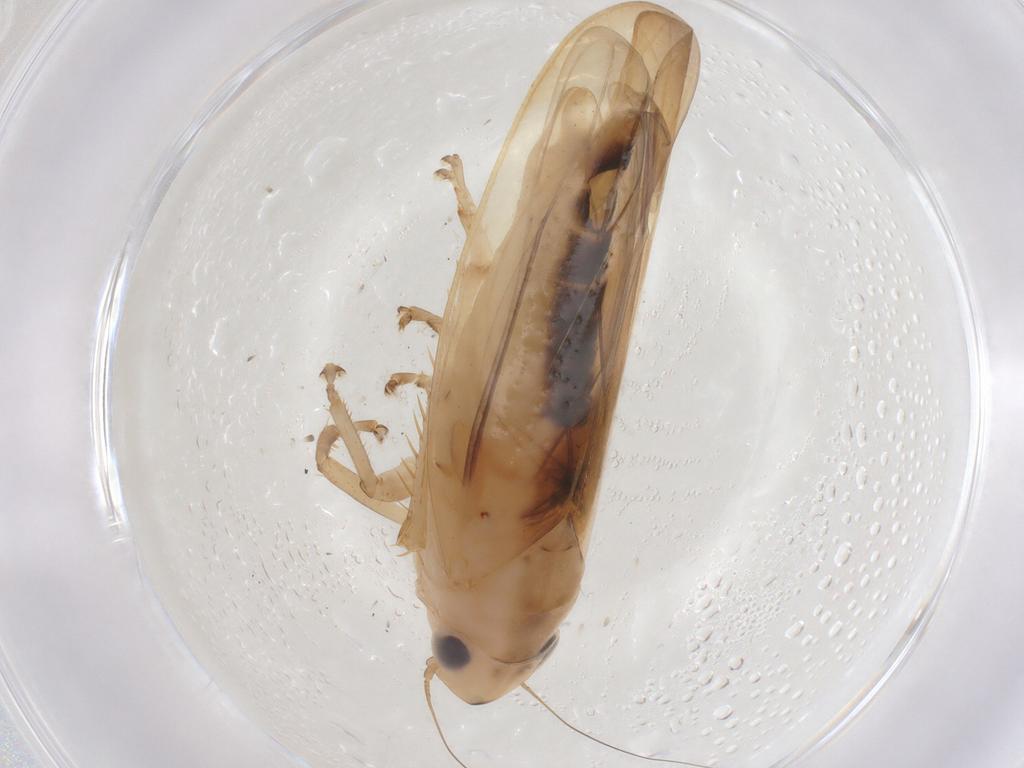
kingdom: Animalia
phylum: Arthropoda
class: Insecta
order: Hemiptera
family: Cicadellidae
